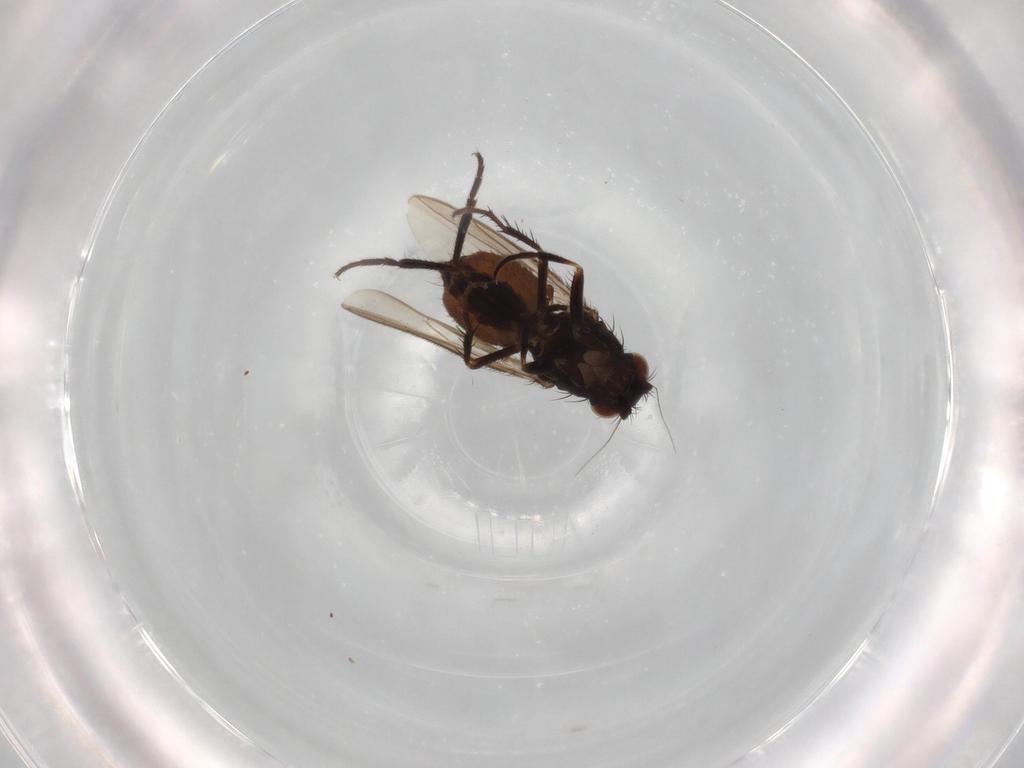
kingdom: Animalia
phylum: Arthropoda
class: Insecta
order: Diptera
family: Sphaeroceridae
